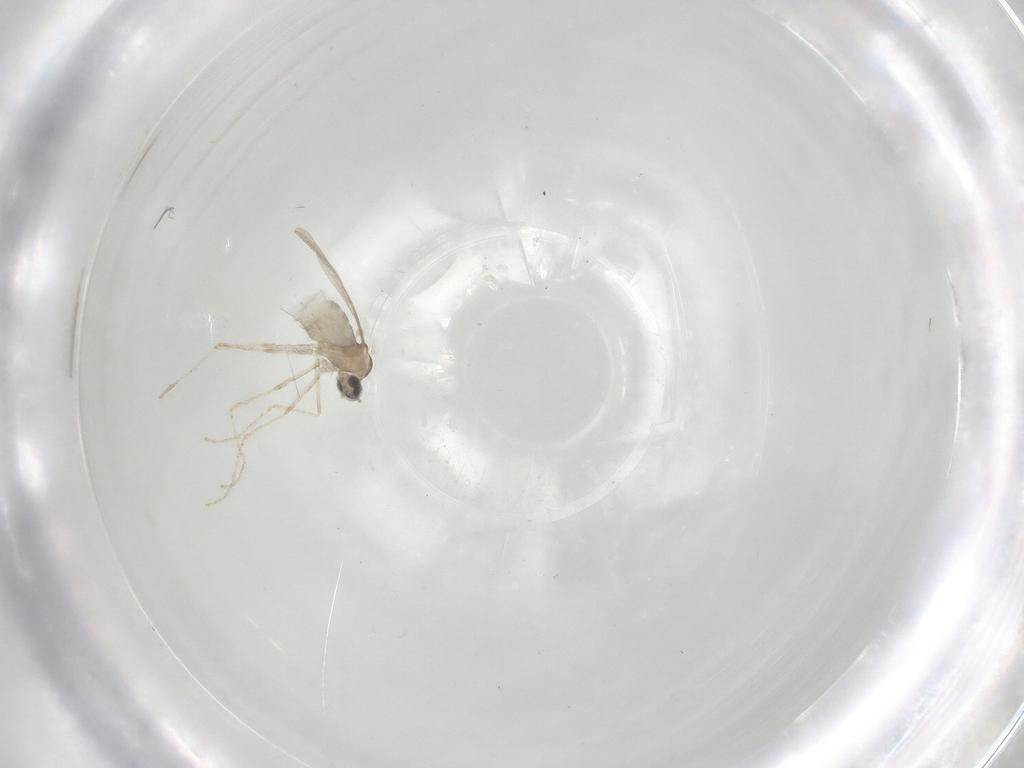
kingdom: Animalia
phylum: Arthropoda
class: Insecta
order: Diptera
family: Cecidomyiidae
